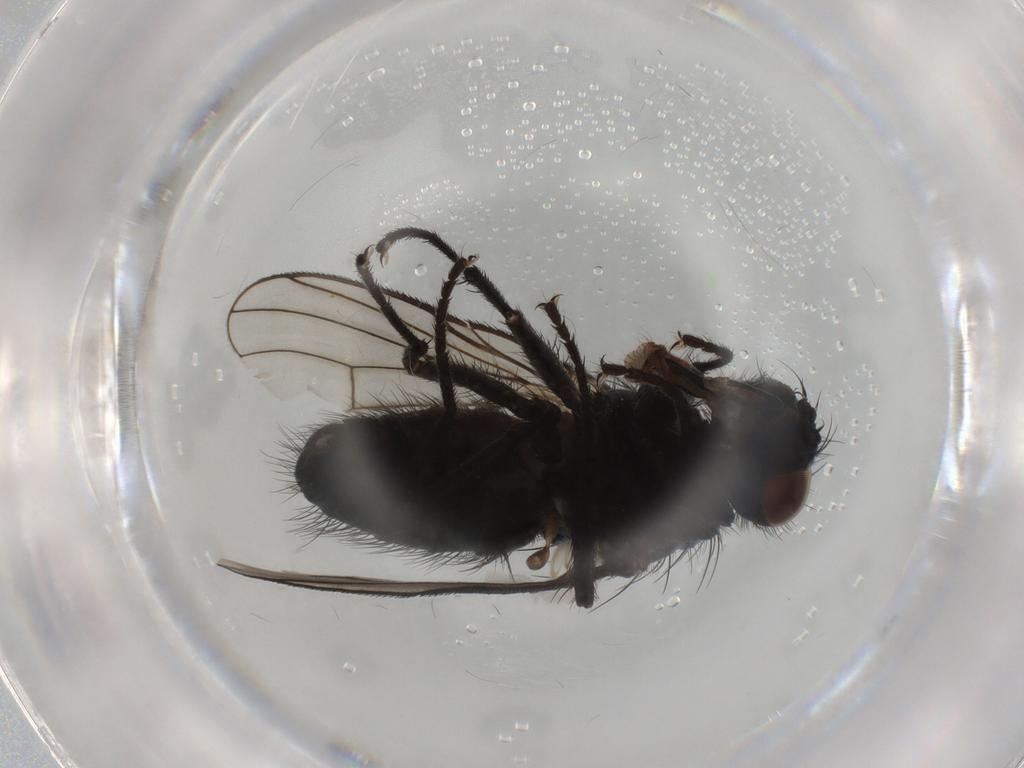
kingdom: Animalia
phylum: Arthropoda
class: Insecta
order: Diptera
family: Muscidae
